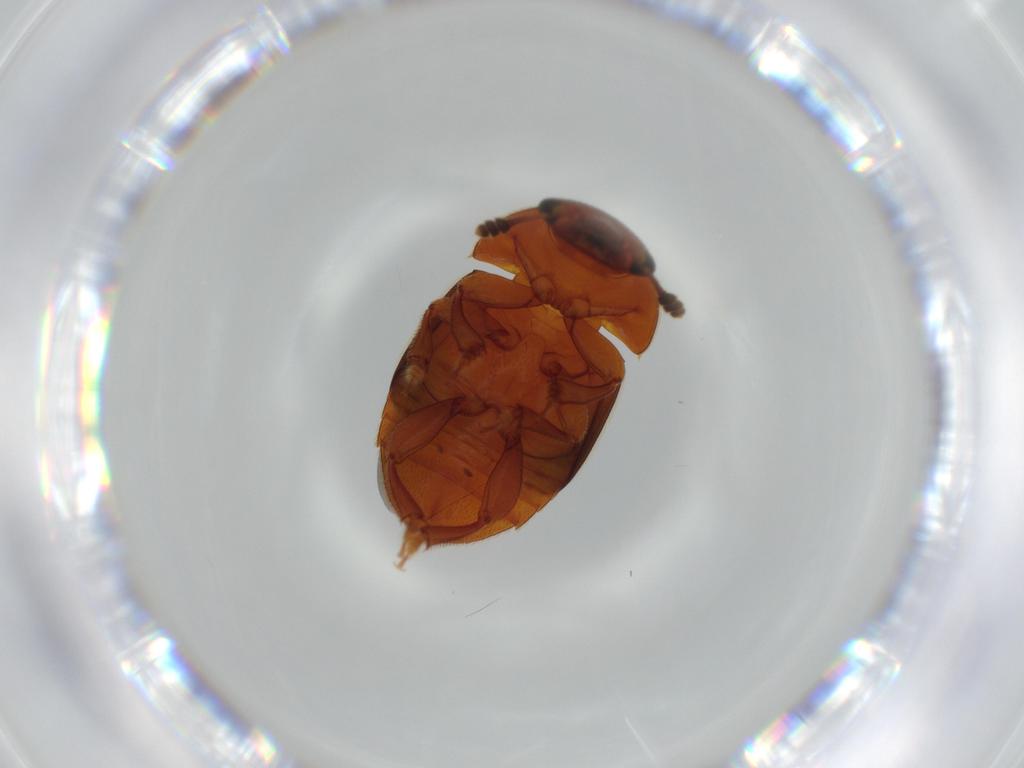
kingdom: Animalia
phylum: Arthropoda
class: Insecta
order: Coleoptera
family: Nitidulidae
